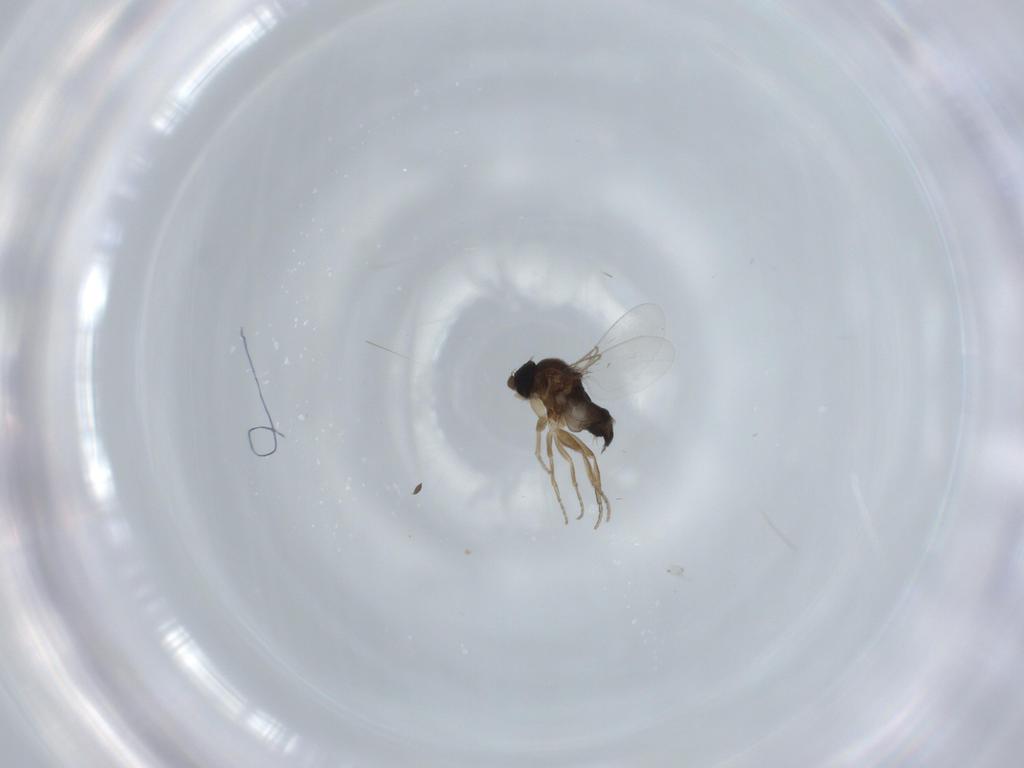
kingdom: Animalia
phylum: Arthropoda
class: Insecta
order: Diptera
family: Phoridae
